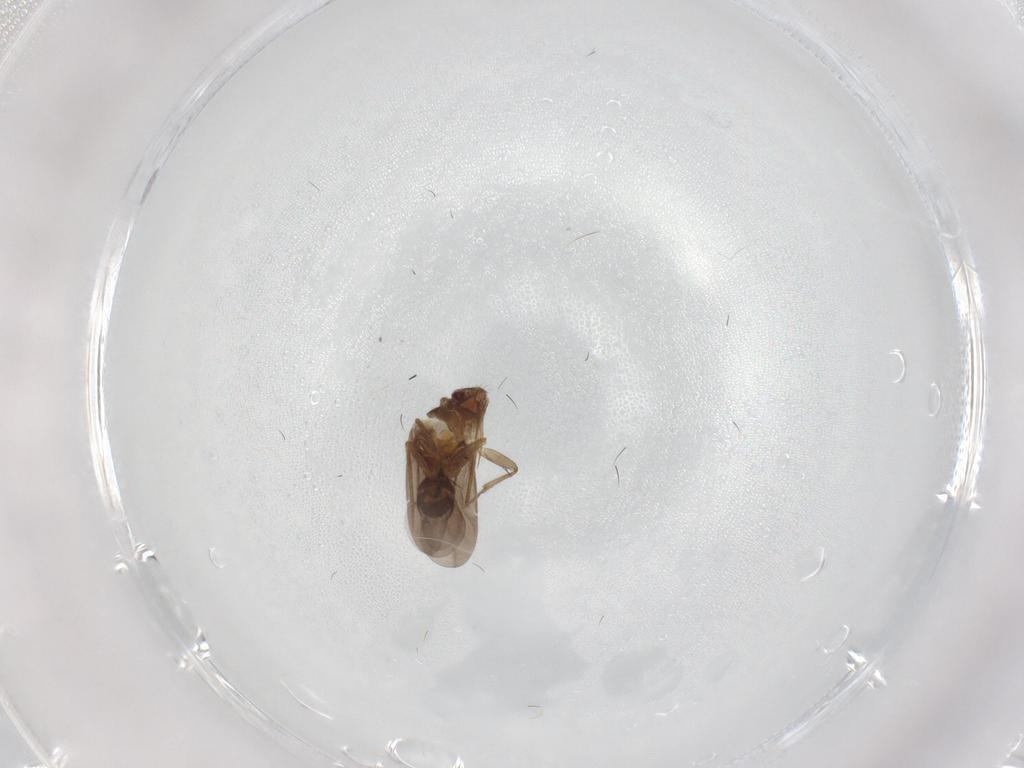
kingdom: Animalia
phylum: Arthropoda
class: Insecta
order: Hemiptera
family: Ceratocombidae
